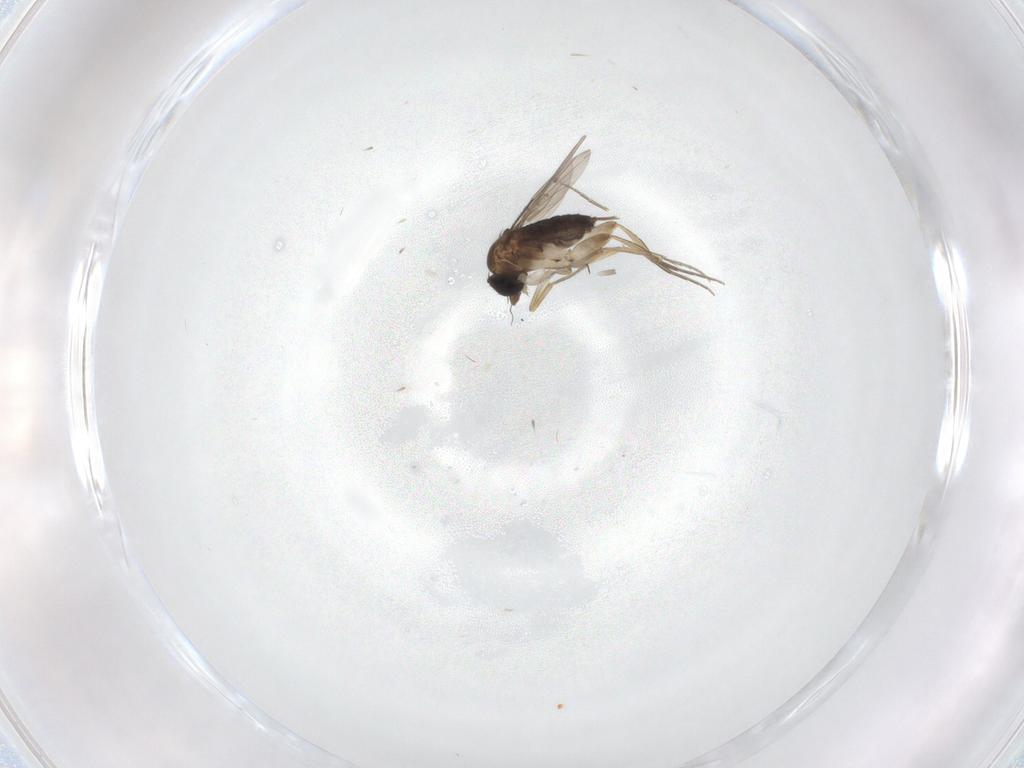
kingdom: Animalia
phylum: Arthropoda
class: Insecta
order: Diptera
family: Phoridae
